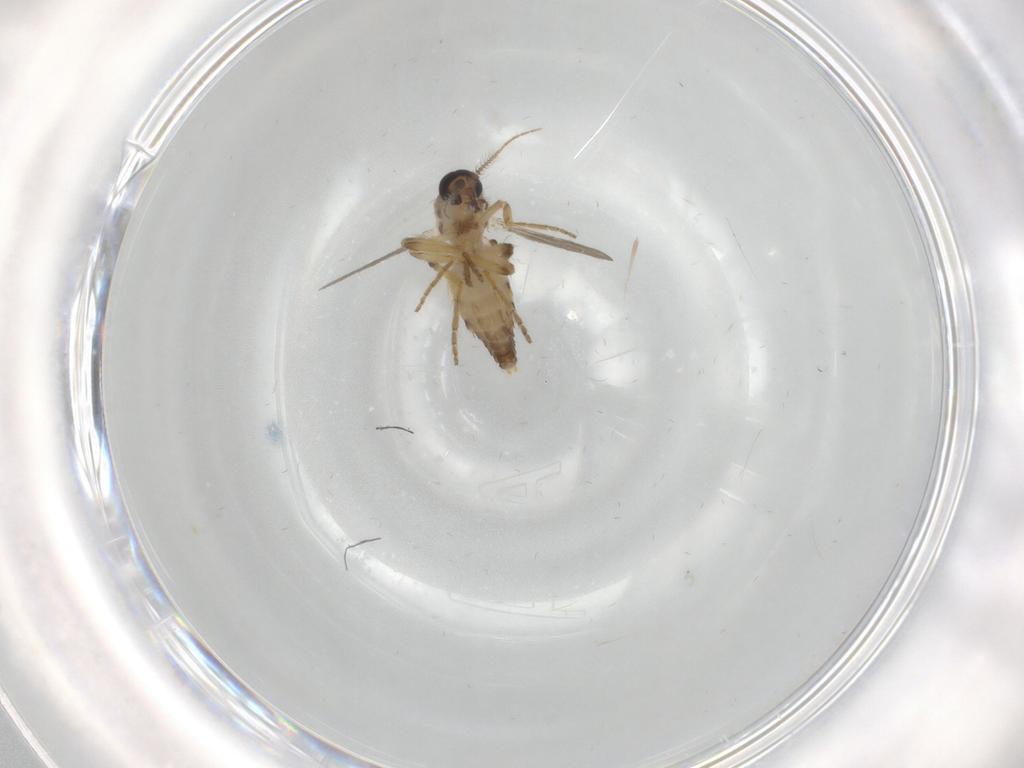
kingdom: Animalia
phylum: Arthropoda
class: Insecta
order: Diptera
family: Ceratopogonidae
